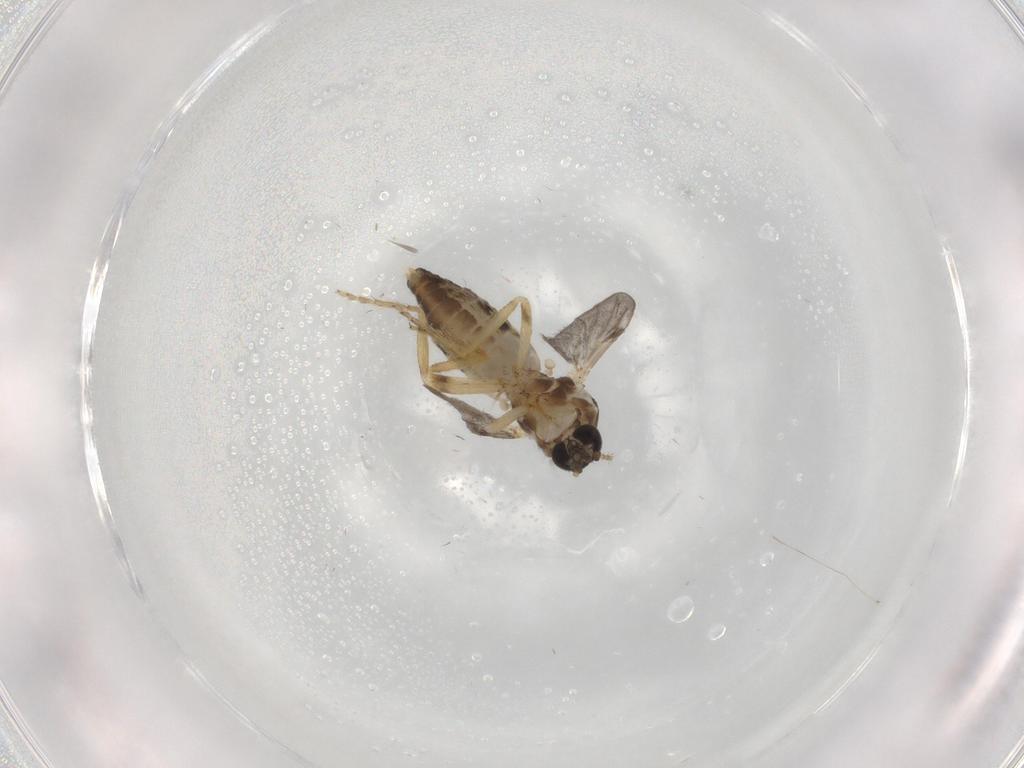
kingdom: Animalia
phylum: Arthropoda
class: Insecta
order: Diptera
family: Ceratopogonidae
